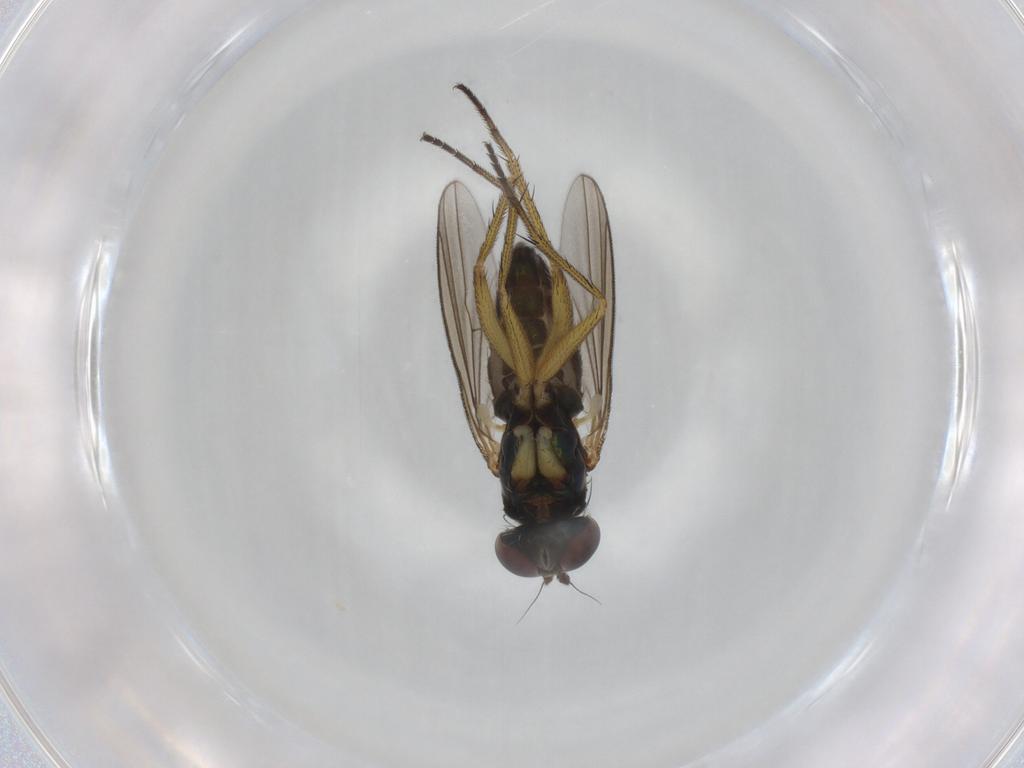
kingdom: Animalia
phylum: Arthropoda
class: Insecta
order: Diptera
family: Dolichopodidae
